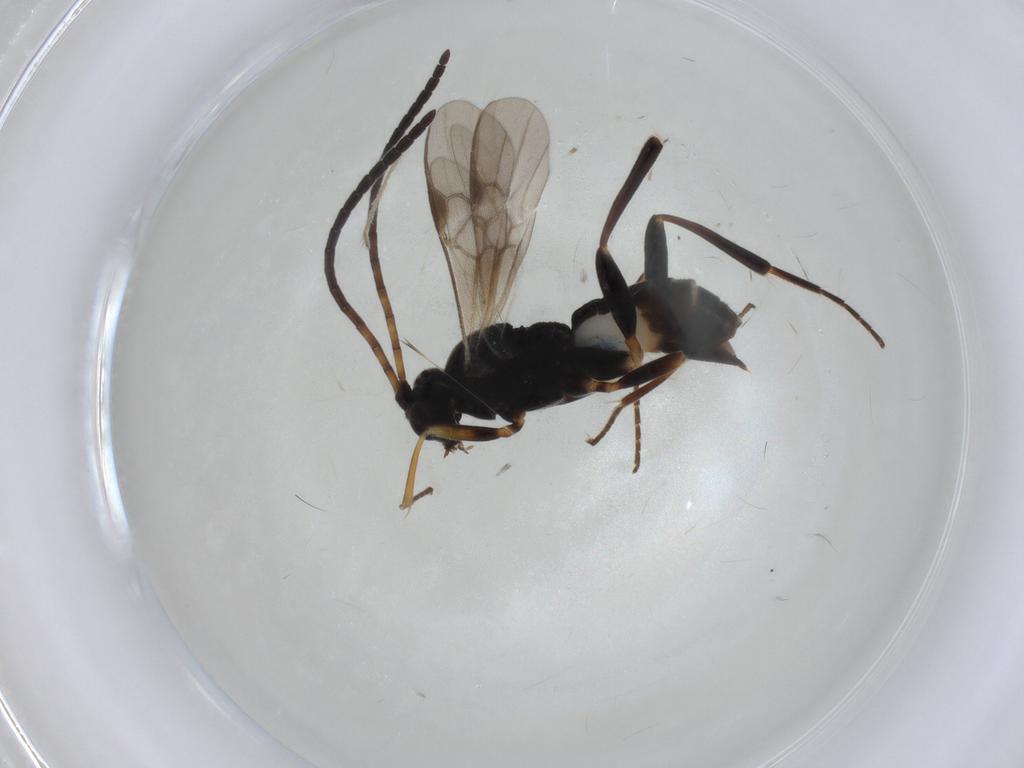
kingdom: Animalia
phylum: Arthropoda
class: Insecta
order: Hymenoptera
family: Braconidae
